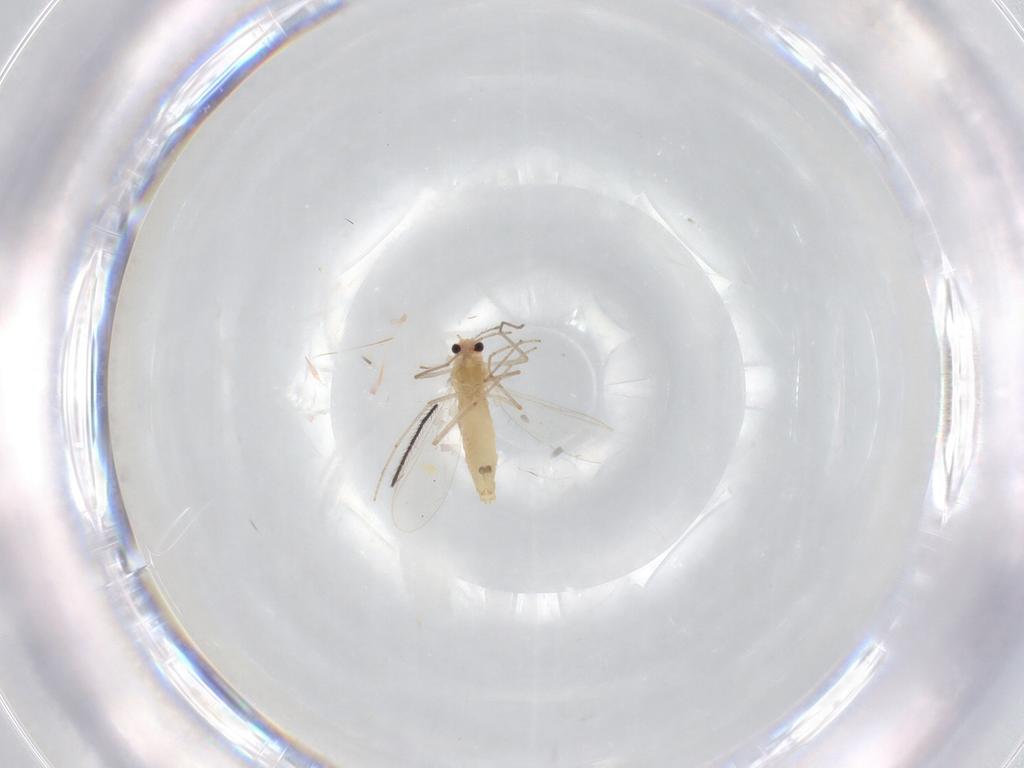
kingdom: Animalia
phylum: Arthropoda
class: Insecta
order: Diptera
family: Chironomidae
